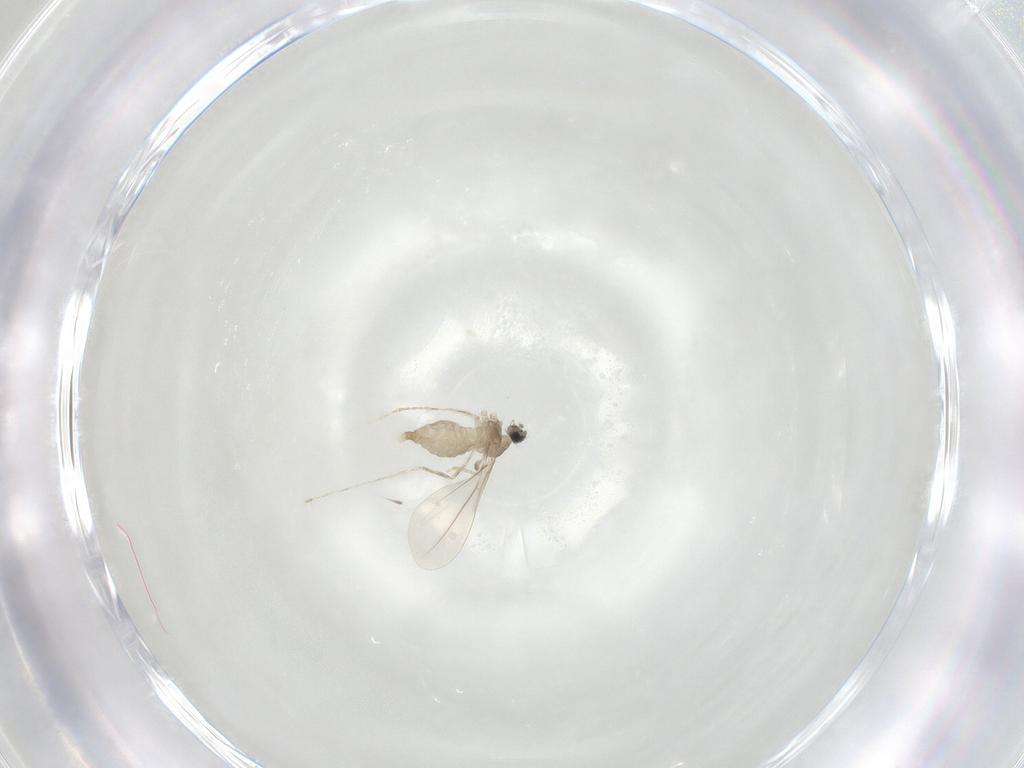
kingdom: Animalia
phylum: Arthropoda
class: Insecta
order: Diptera
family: Cecidomyiidae
